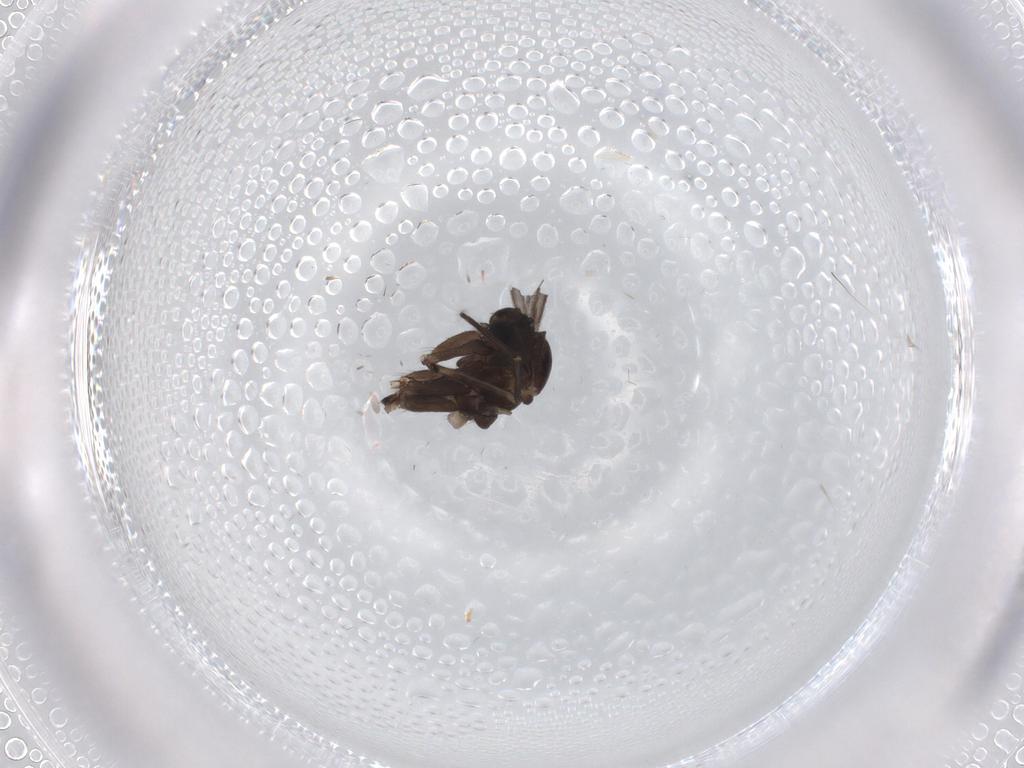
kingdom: Animalia
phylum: Arthropoda
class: Insecta
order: Diptera
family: Sciaridae
